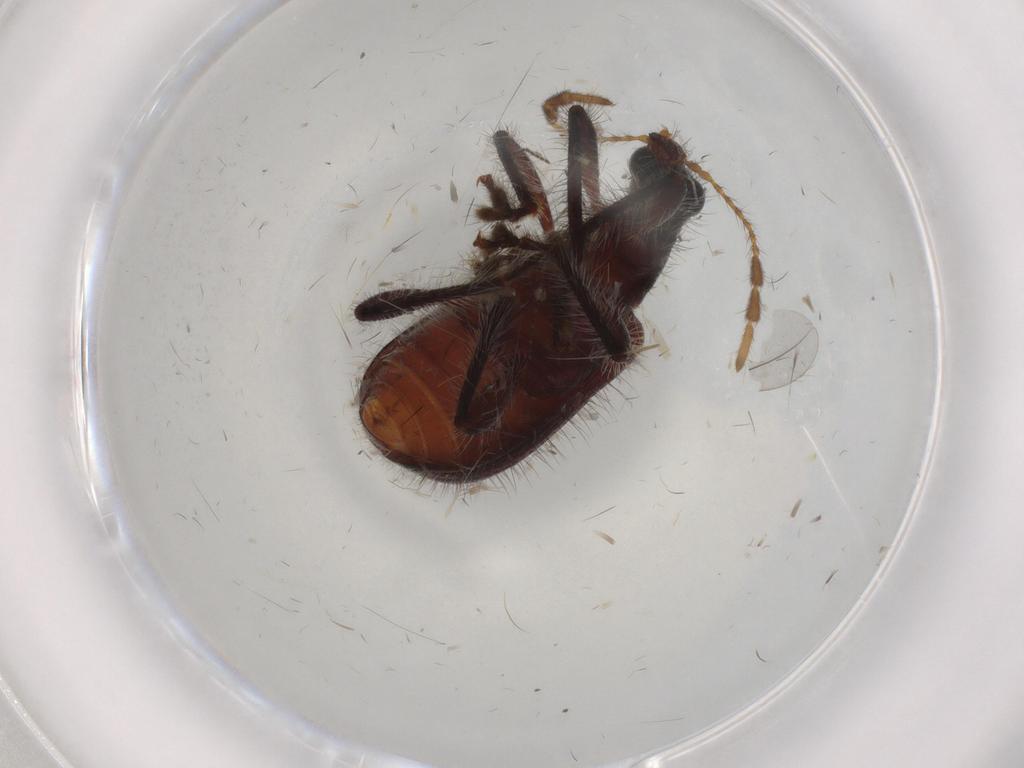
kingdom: Animalia
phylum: Arthropoda
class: Insecta
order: Coleoptera
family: Attelabidae
